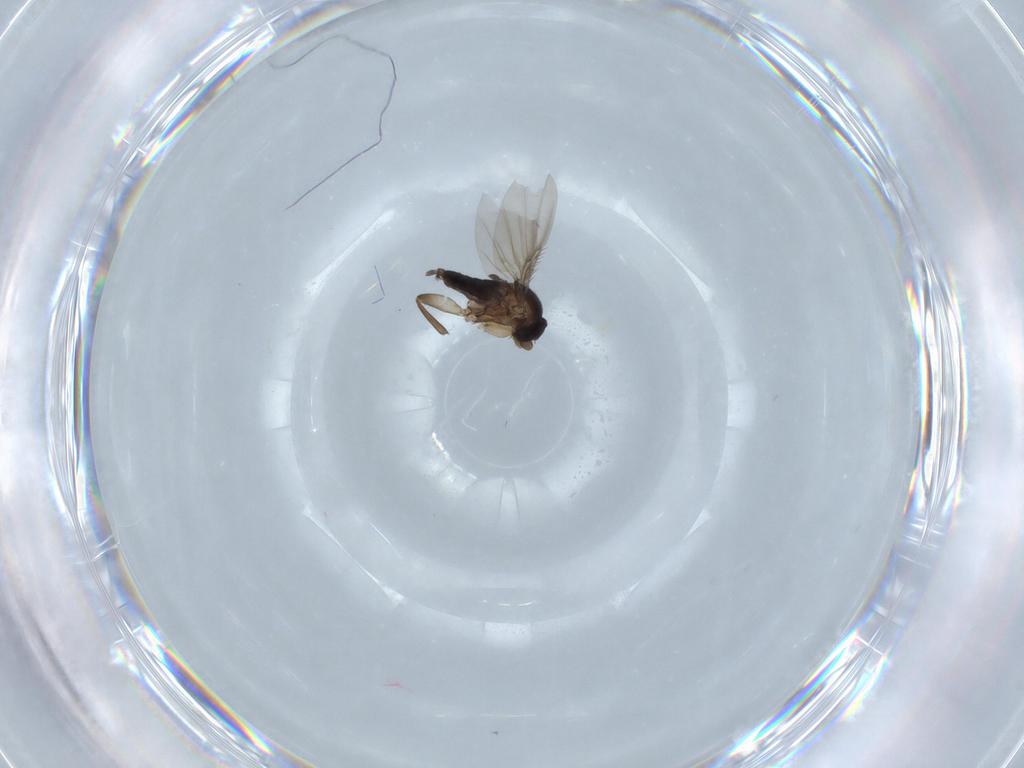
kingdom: Animalia
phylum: Arthropoda
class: Insecta
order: Diptera
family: Phoridae
